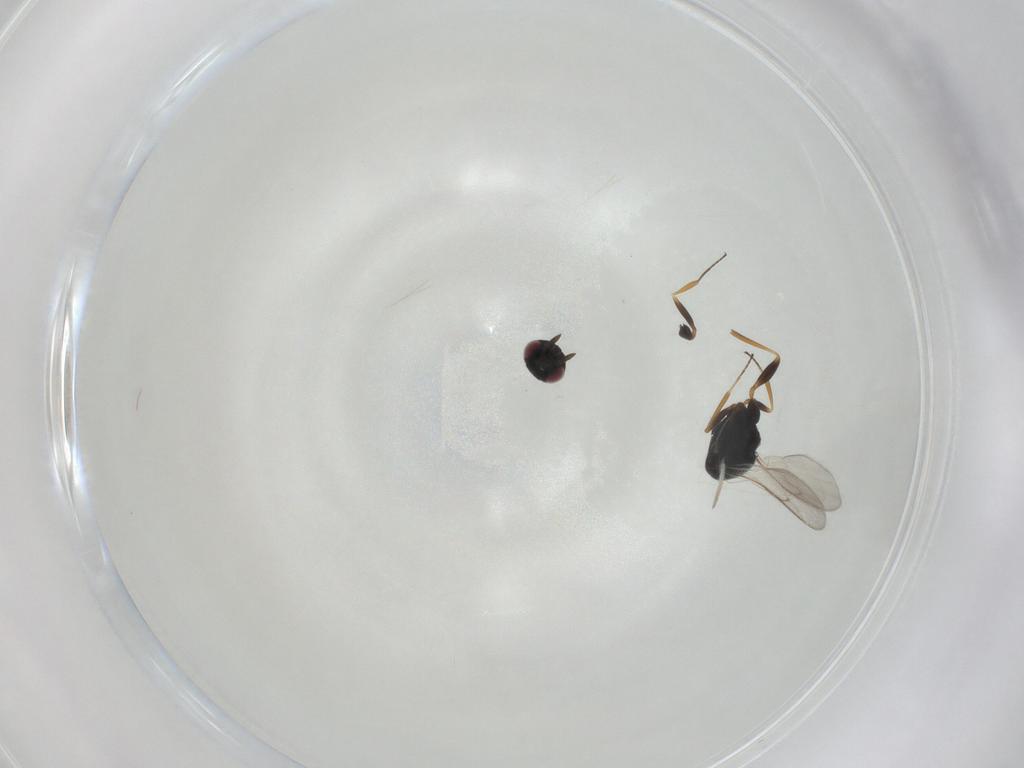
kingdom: Animalia
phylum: Arthropoda
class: Insecta
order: Hymenoptera
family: Scelionidae
